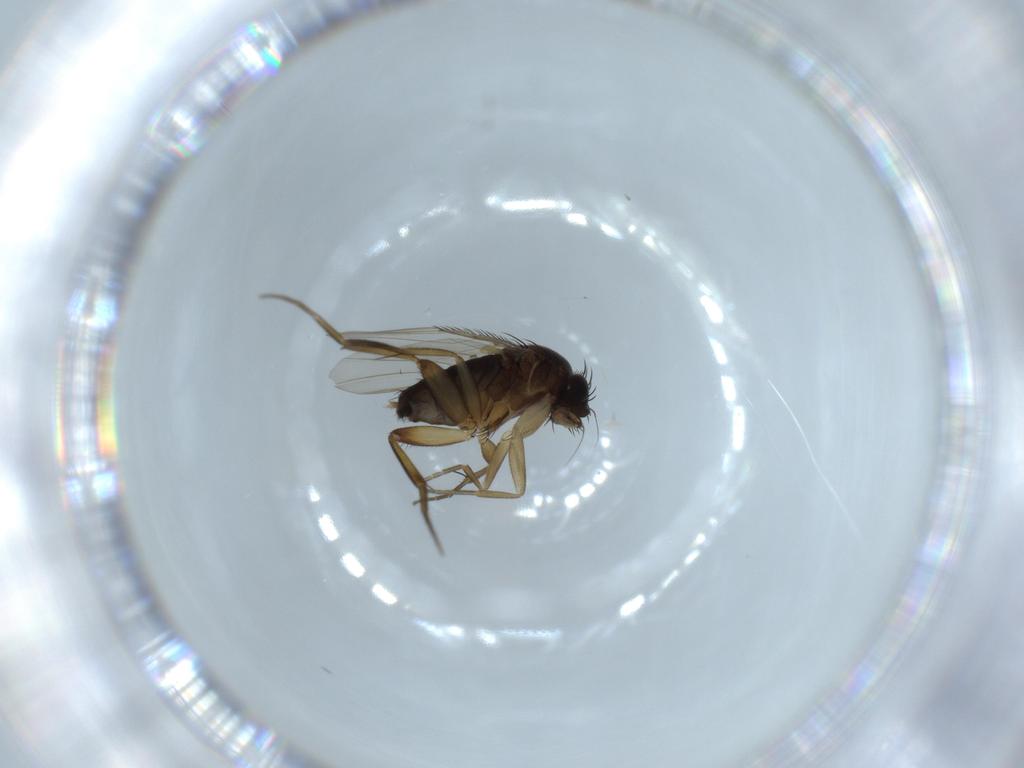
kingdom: Animalia
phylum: Arthropoda
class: Insecta
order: Diptera
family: Phoridae
